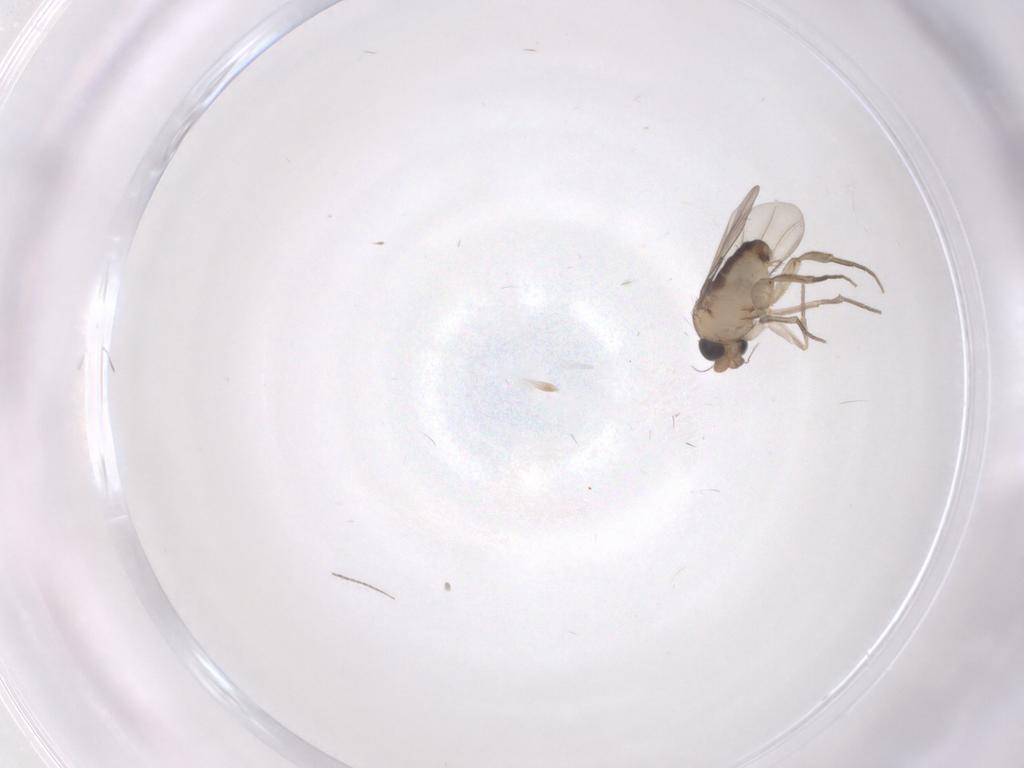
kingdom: Animalia
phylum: Arthropoda
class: Insecta
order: Diptera
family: Phoridae
